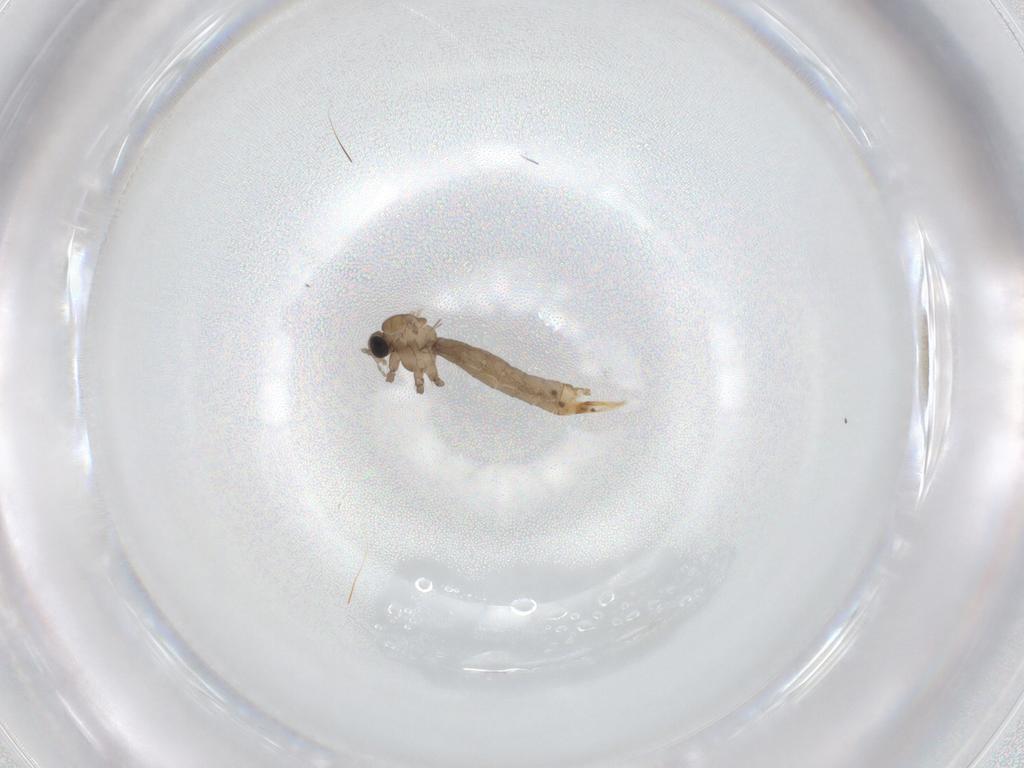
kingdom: Animalia
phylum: Arthropoda
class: Insecta
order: Diptera
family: Limoniidae
